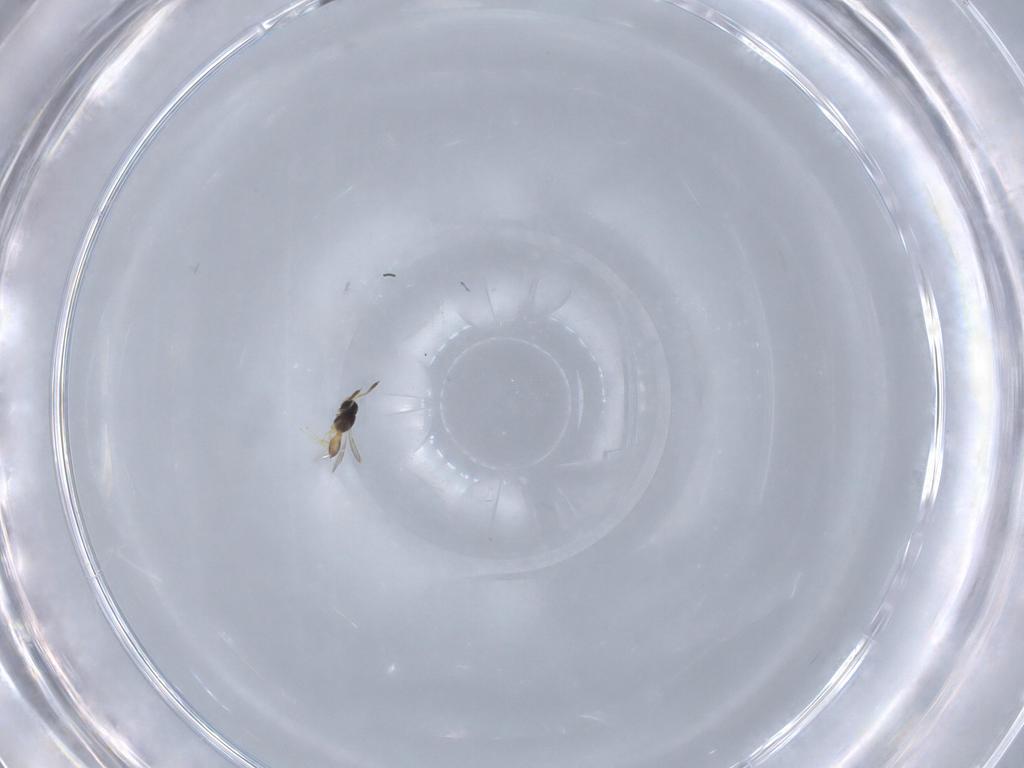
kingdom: Animalia
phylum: Arthropoda
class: Insecta
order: Hymenoptera
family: Scelionidae
